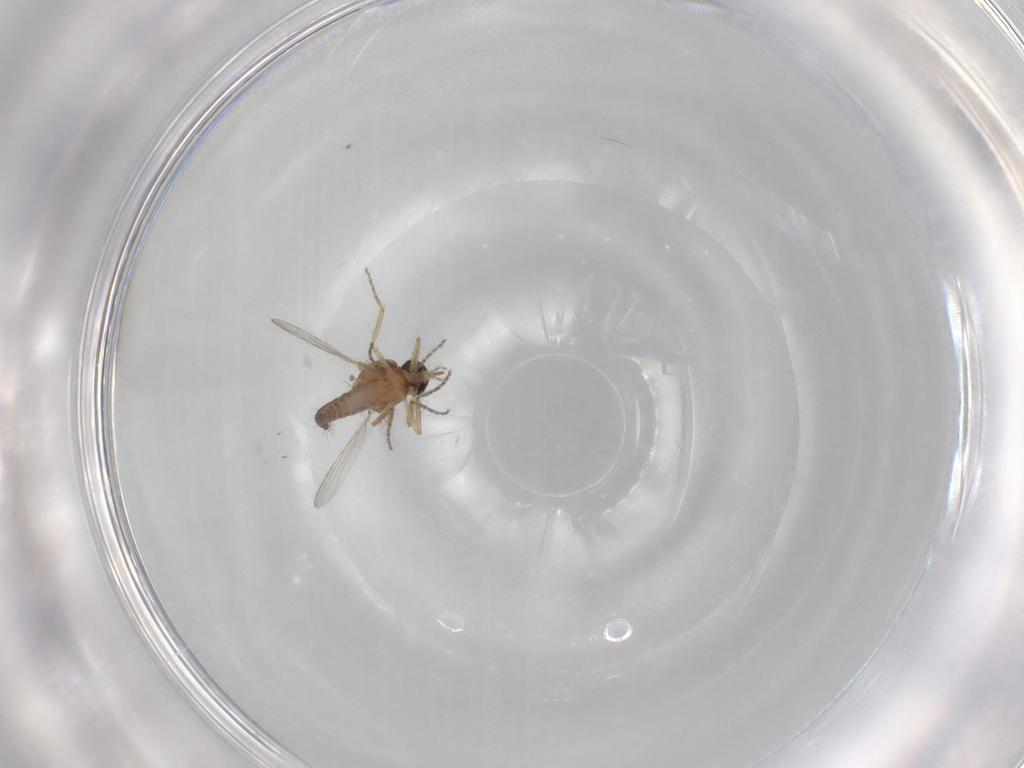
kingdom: Animalia
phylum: Arthropoda
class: Insecta
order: Diptera
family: Ceratopogonidae
